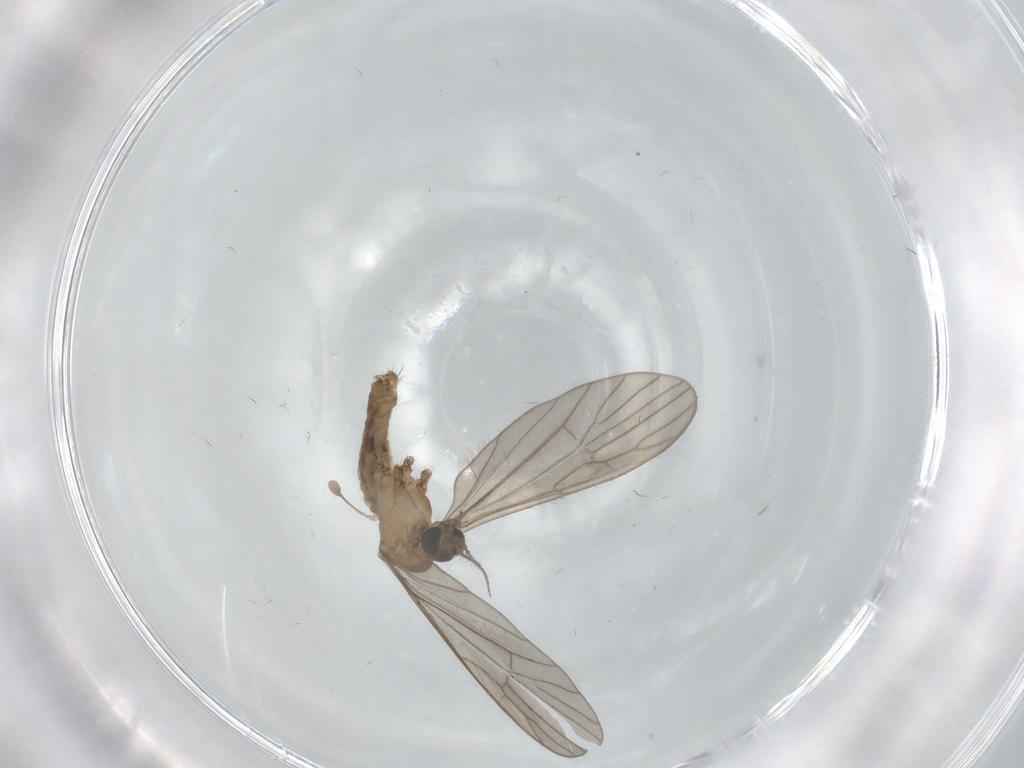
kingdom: Animalia
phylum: Arthropoda
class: Insecta
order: Diptera
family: Cecidomyiidae
